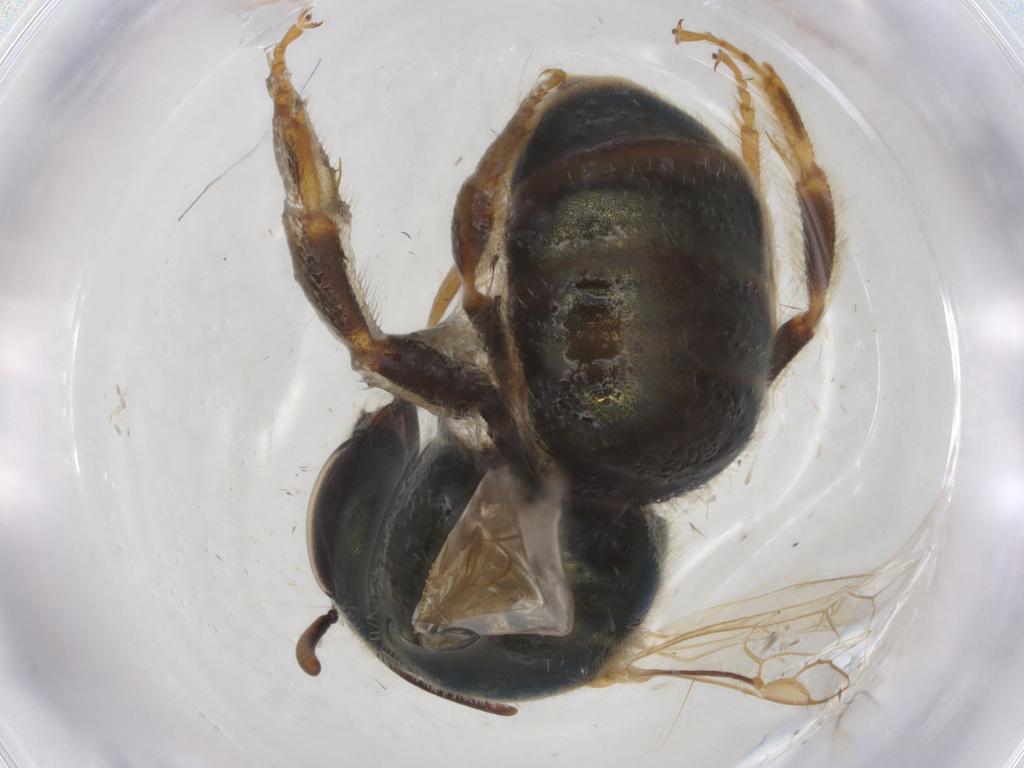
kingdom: Animalia
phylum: Arthropoda
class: Insecta
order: Hymenoptera
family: Halictidae
